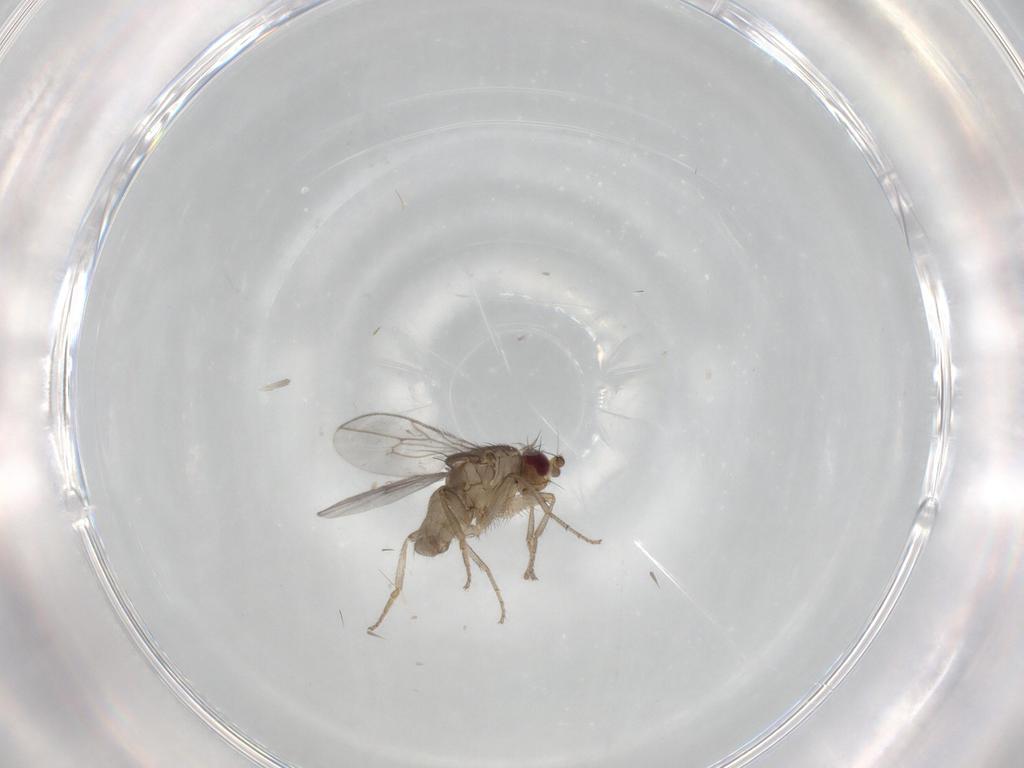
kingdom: Animalia
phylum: Arthropoda
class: Insecta
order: Diptera
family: Sphaeroceridae
